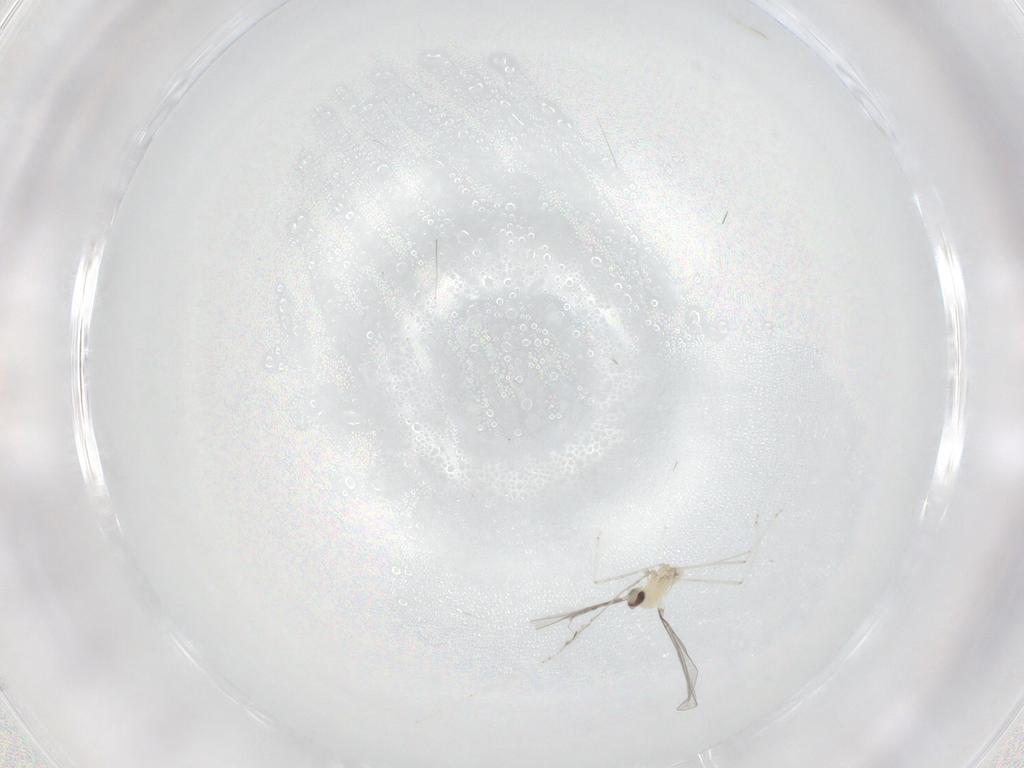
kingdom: Animalia
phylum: Arthropoda
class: Insecta
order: Diptera
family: Cecidomyiidae
